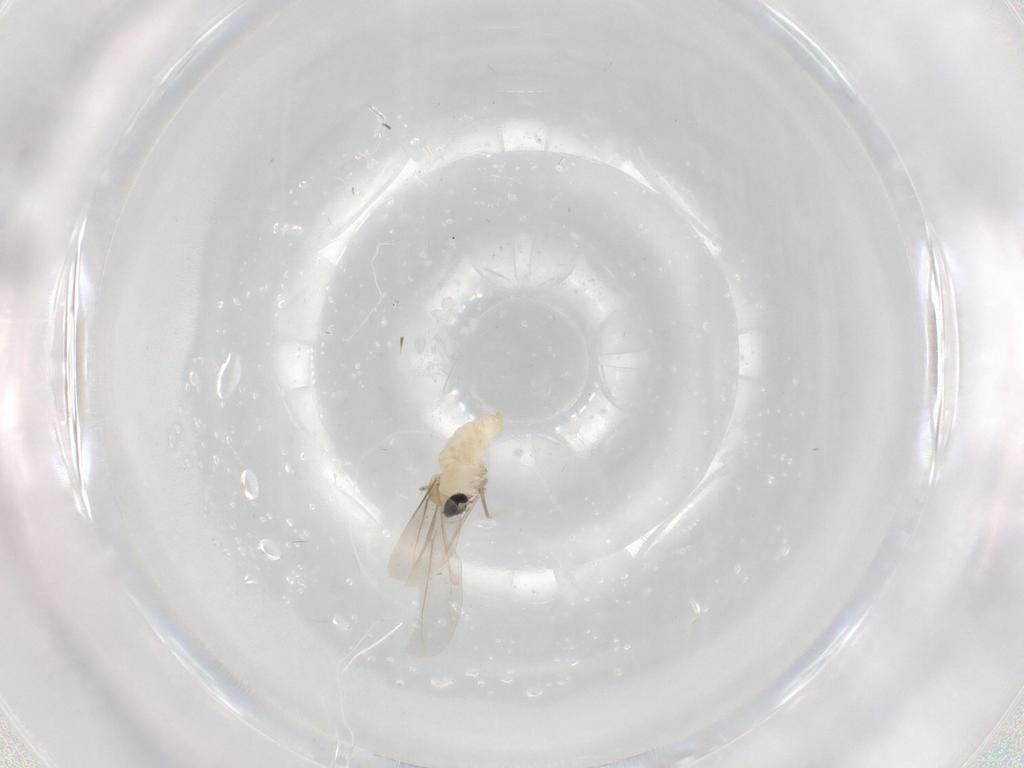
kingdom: Animalia
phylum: Arthropoda
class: Insecta
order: Diptera
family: Cecidomyiidae
